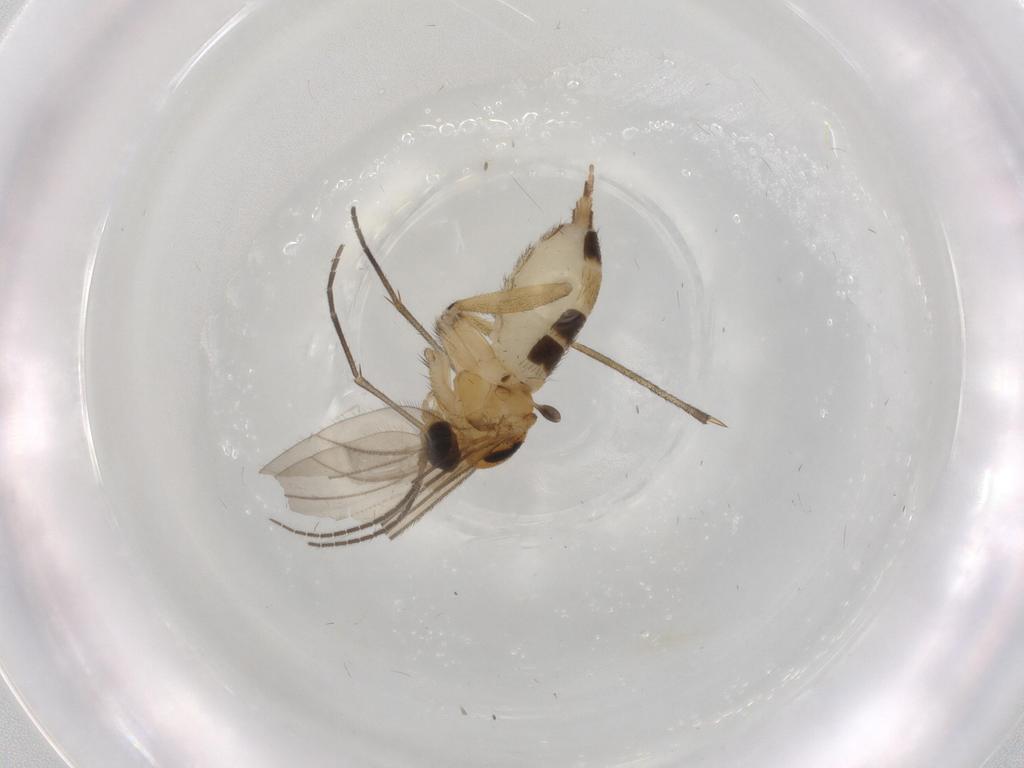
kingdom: Animalia
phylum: Arthropoda
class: Insecta
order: Diptera
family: Sciaridae
